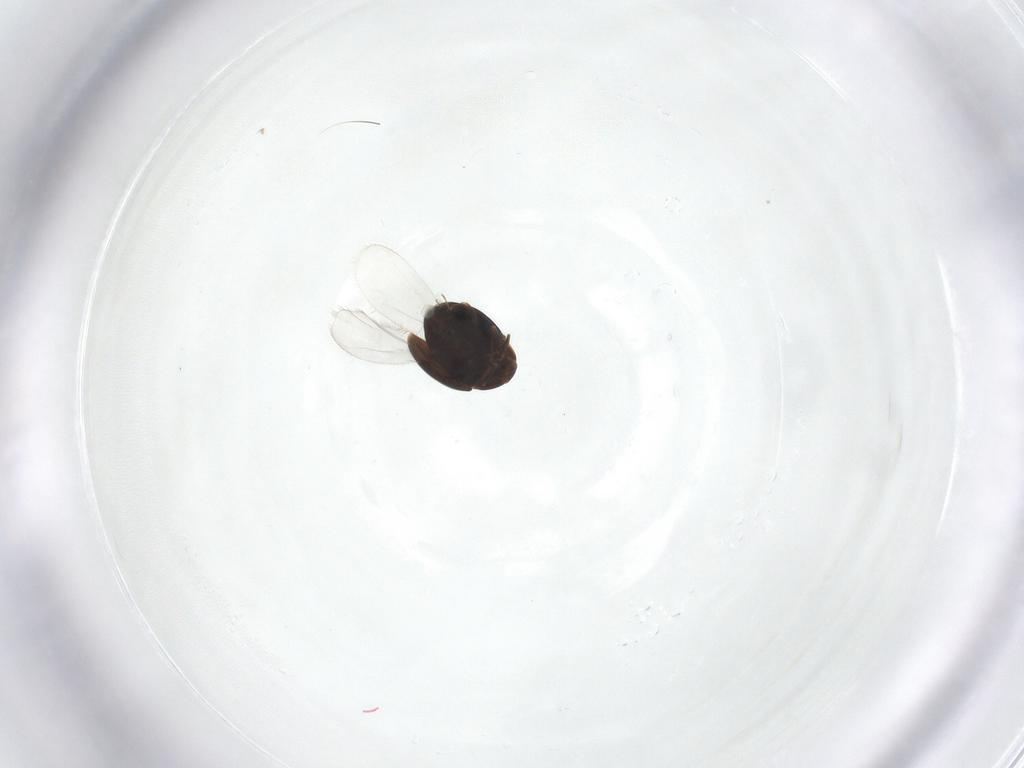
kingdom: Animalia
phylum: Arthropoda
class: Insecta
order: Coleoptera
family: Corylophidae
